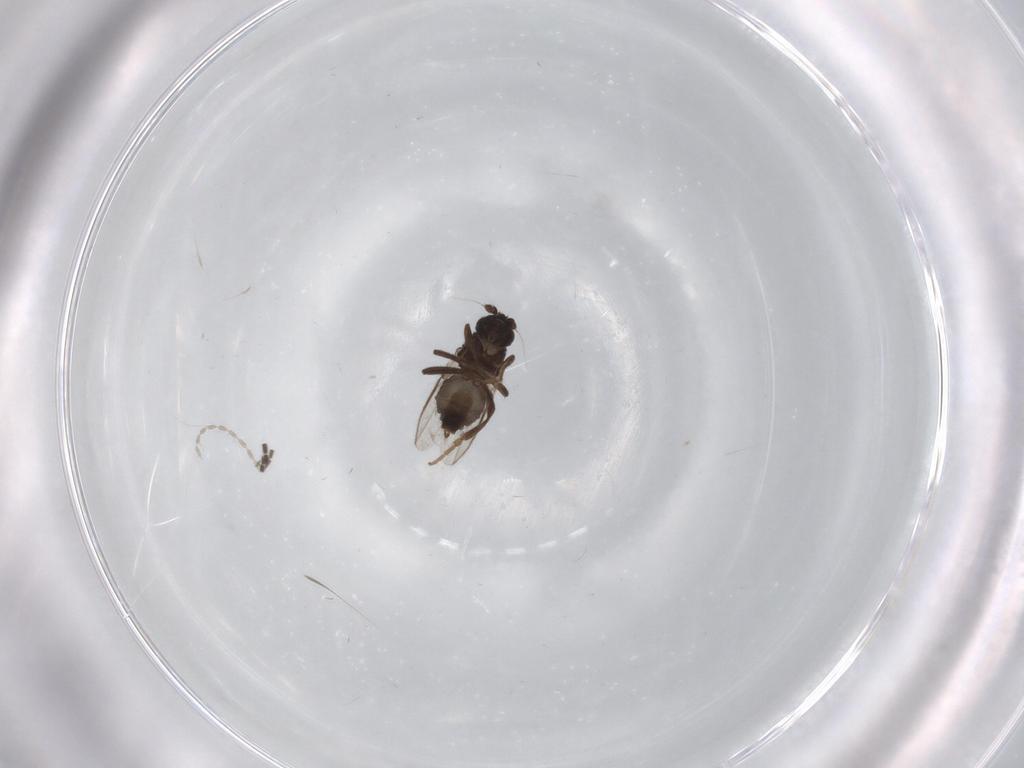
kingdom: Animalia
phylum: Arthropoda
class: Insecta
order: Diptera
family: Sphaeroceridae
